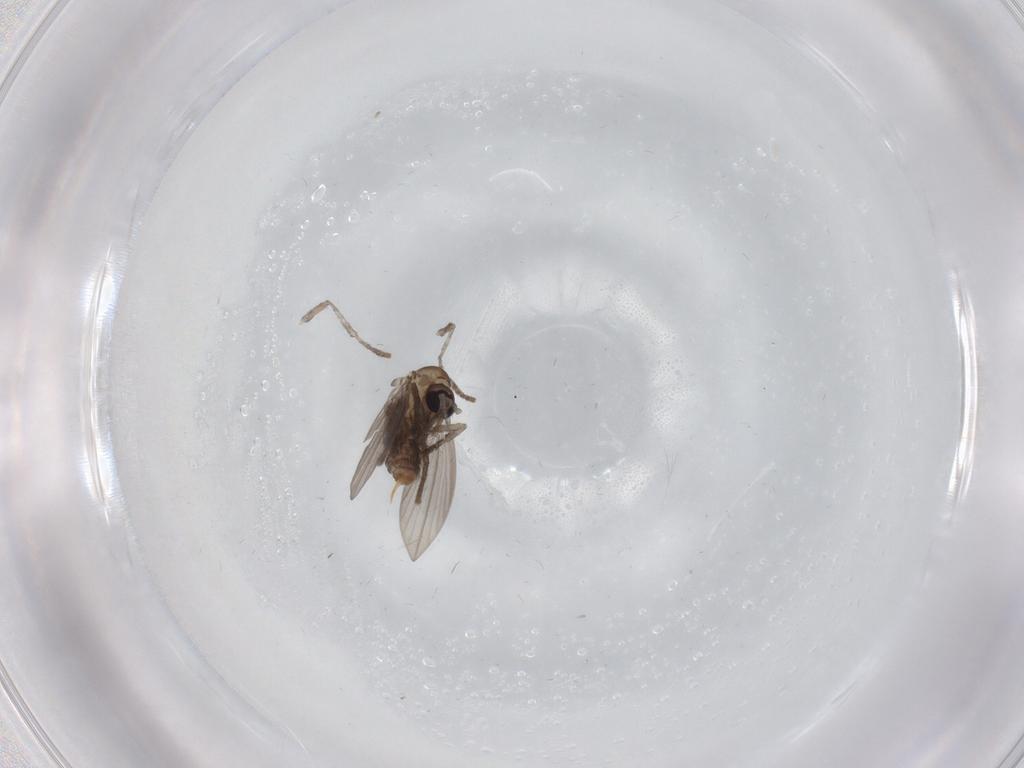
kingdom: Animalia
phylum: Arthropoda
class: Insecta
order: Diptera
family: Psychodidae
